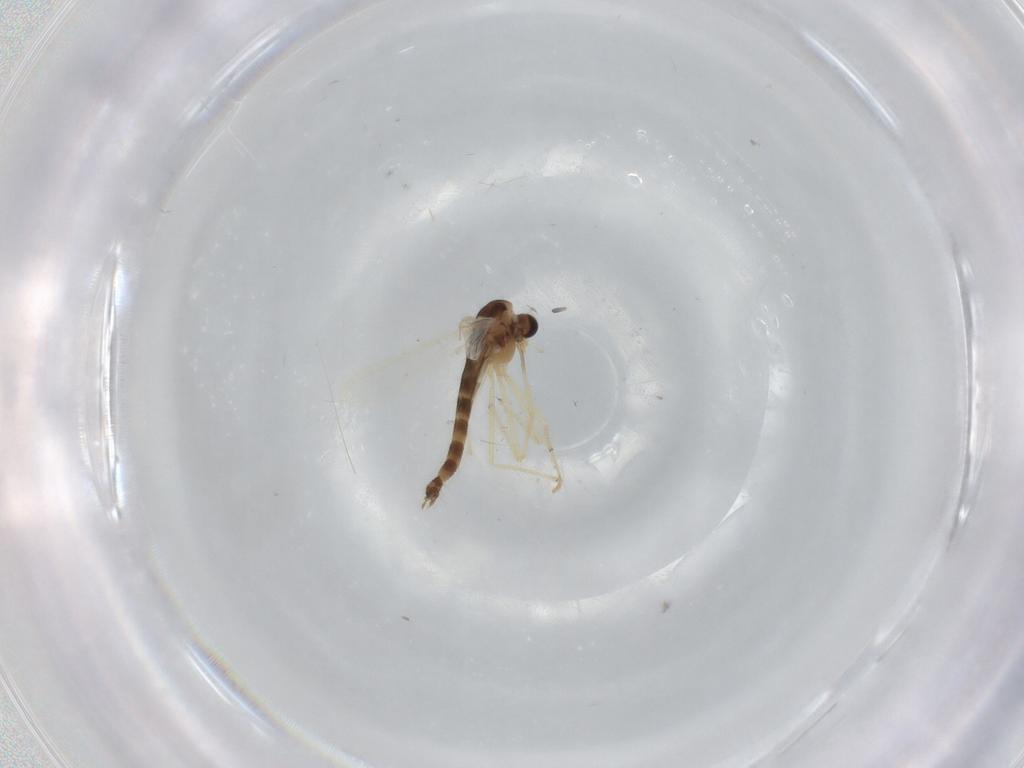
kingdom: Animalia
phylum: Arthropoda
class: Insecta
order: Diptera
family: Chironomidae
